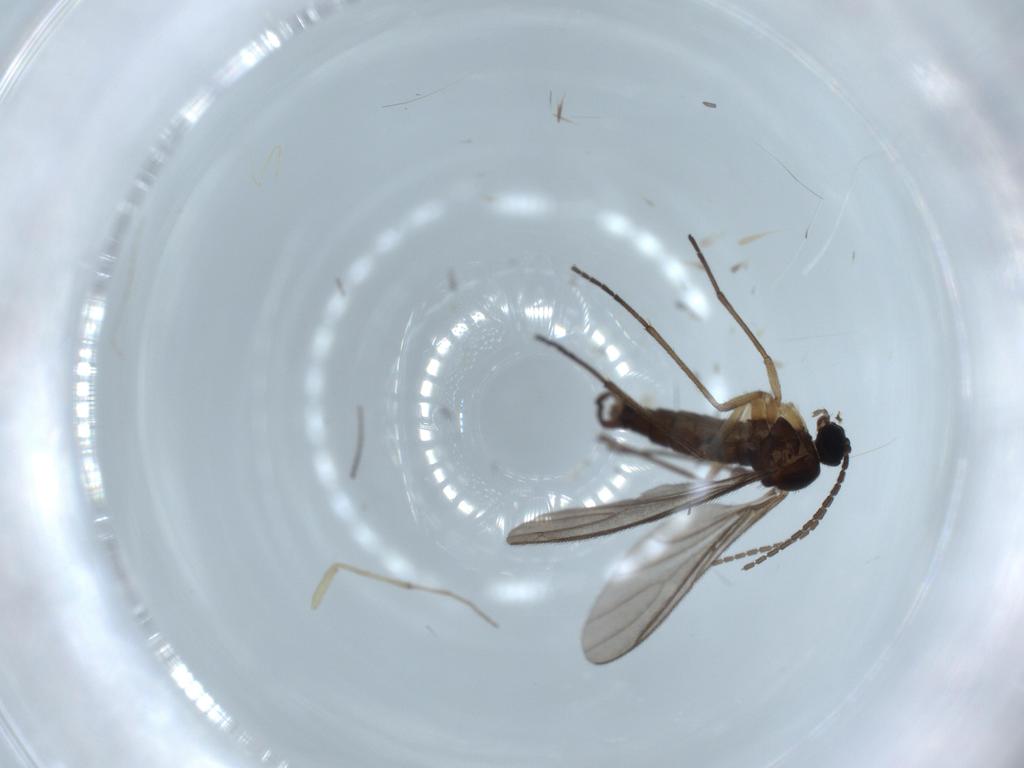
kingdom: Animalia
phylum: Arthropoda
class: Insecta
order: Diptera
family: Sciaridae
